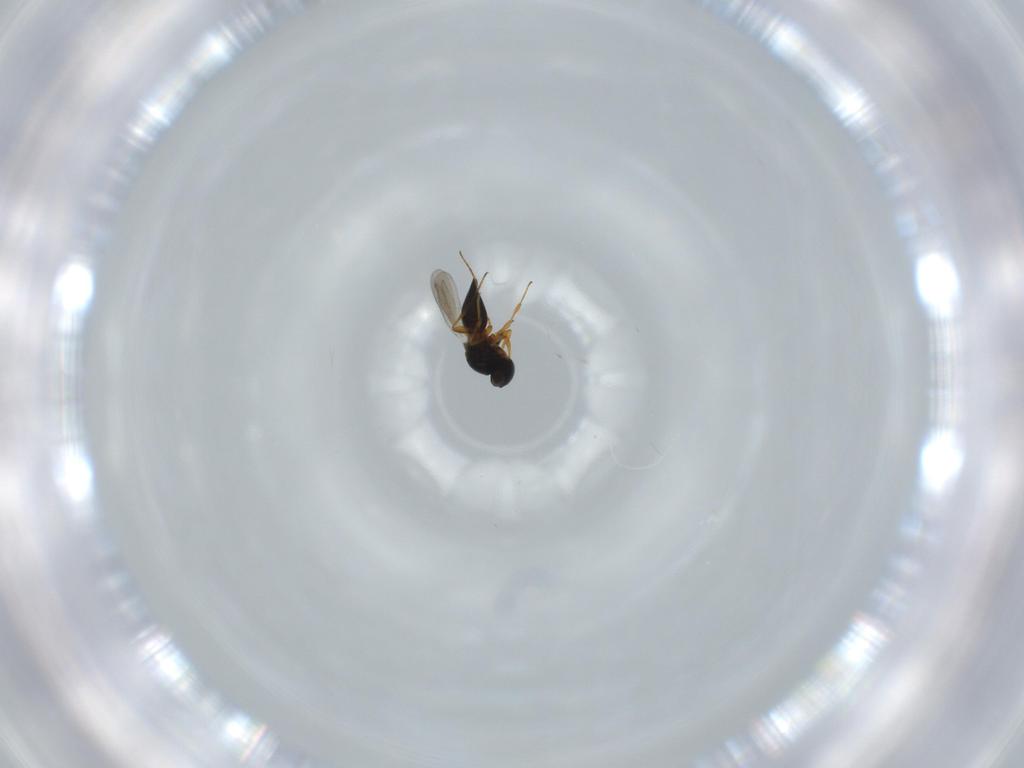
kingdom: Animalia
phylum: Arthropoda
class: Insecta
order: Hymenoptera
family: Platygastridae
